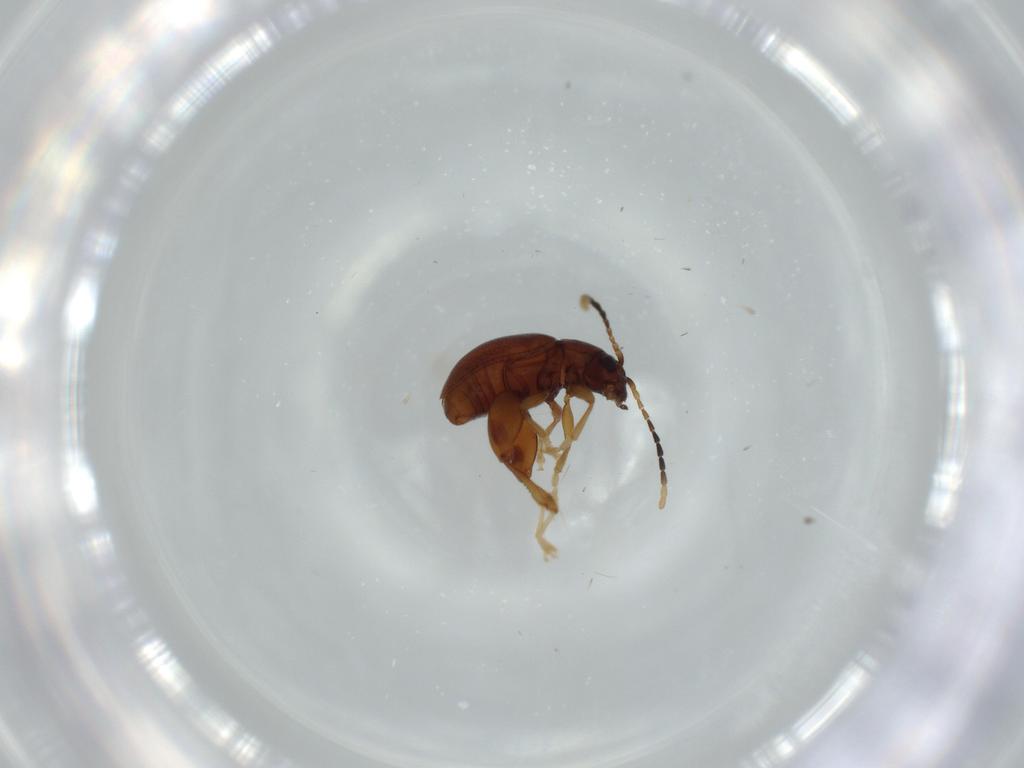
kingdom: Animalia
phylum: Arthropoda
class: Insecta
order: Coleoptera
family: Chrysomelidae
